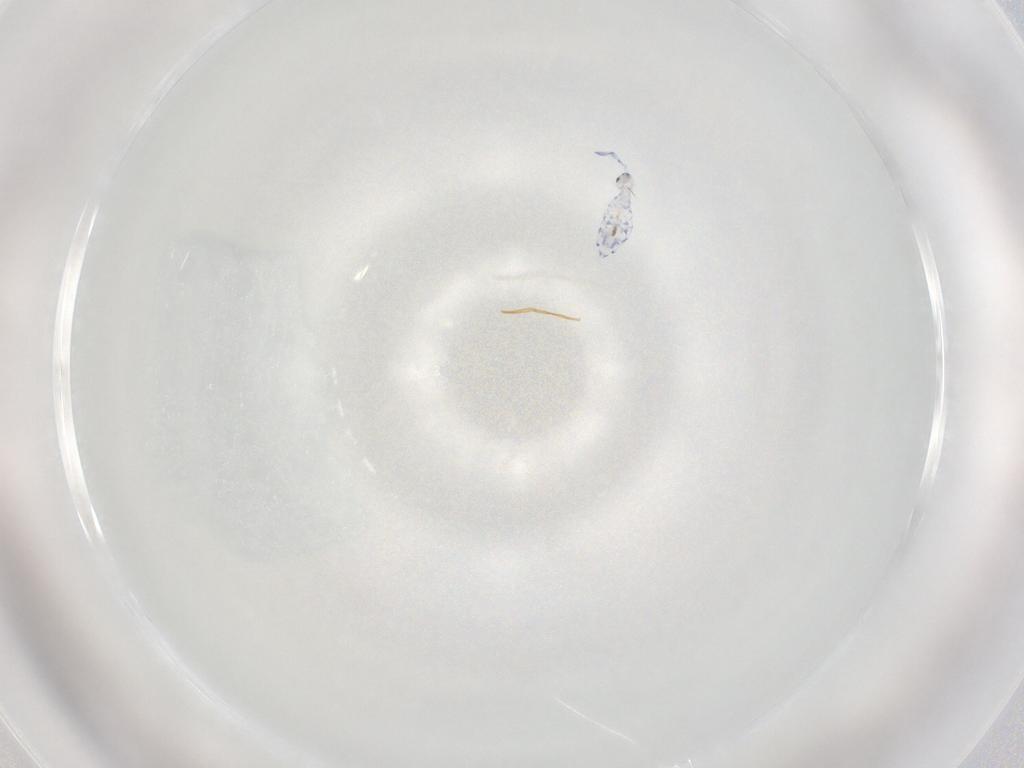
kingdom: Animalia
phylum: Arthropoda
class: Collembola
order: Entomobryomorpha
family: Entomobryidae
